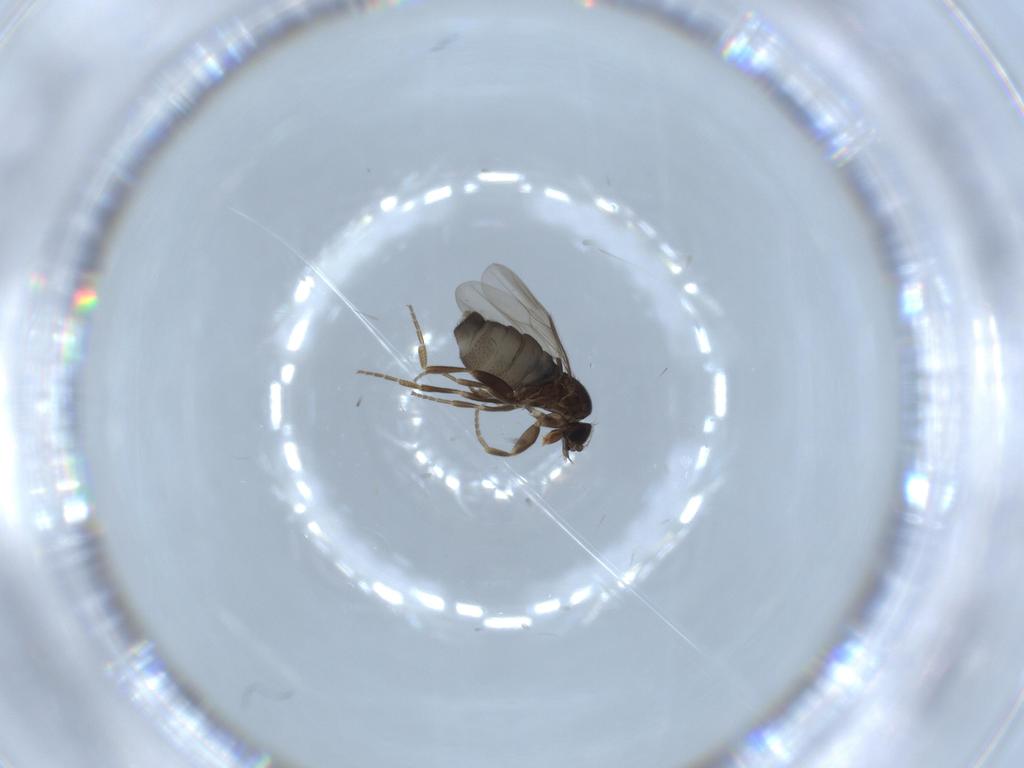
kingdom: Animalia
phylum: Arthropoda
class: Insecta
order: Diptera
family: Phoridae
